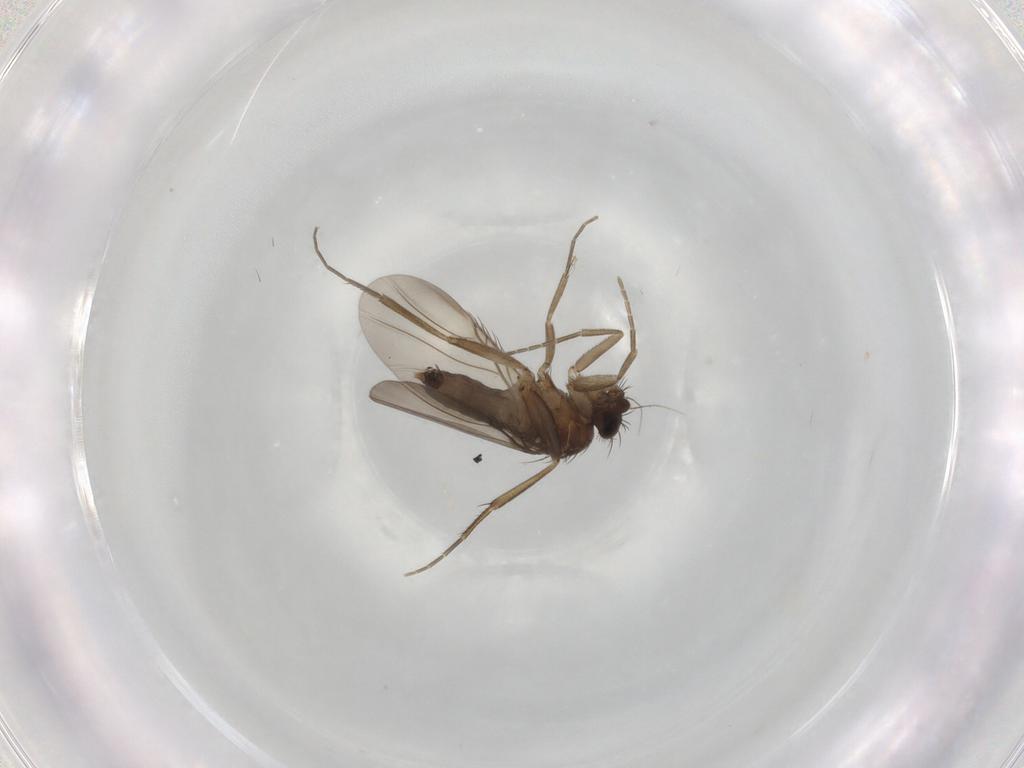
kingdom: Animalia
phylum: Arthropoda
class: Insecta
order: Diptera
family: Phoridae
